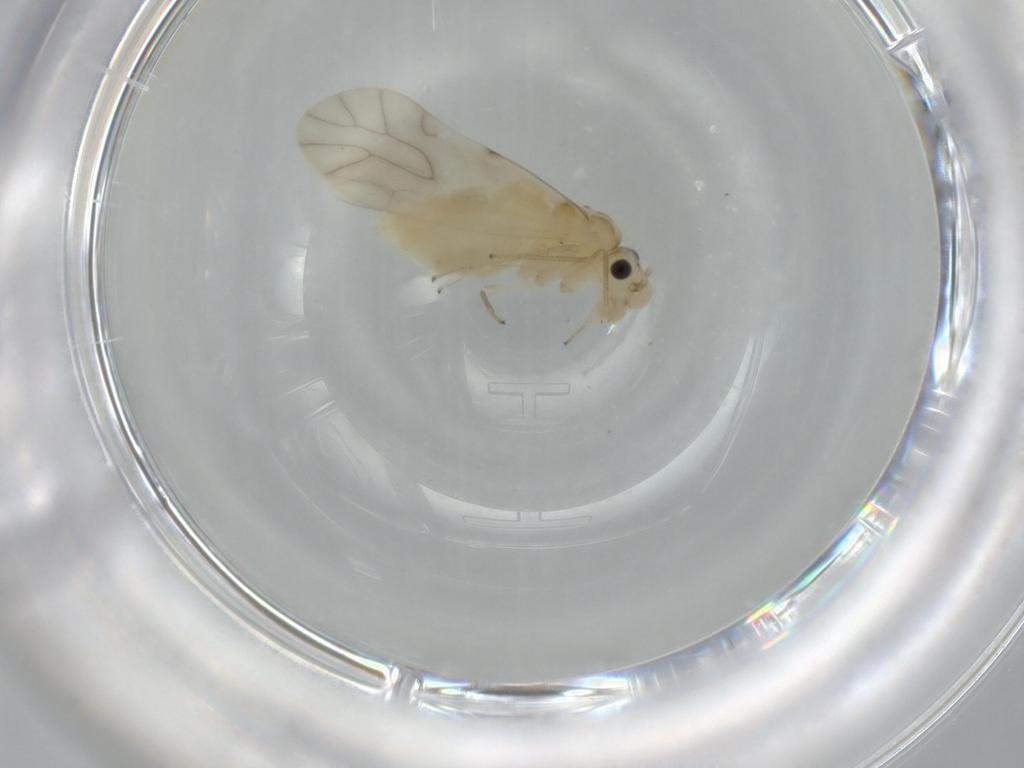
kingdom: Animalia
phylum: Arthropoda
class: Insecta
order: Psocodea
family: Caeciliusidae
